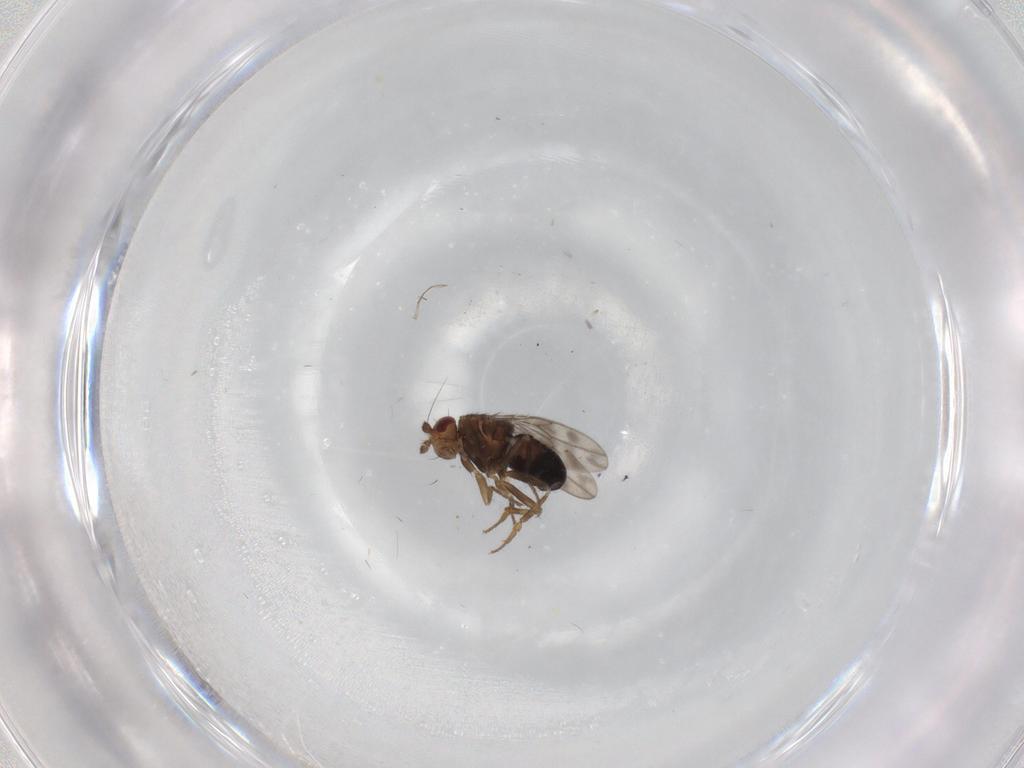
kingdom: Animalia
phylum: Arthropoda
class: Insecta
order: Diptera
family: Sphaeroceridae
